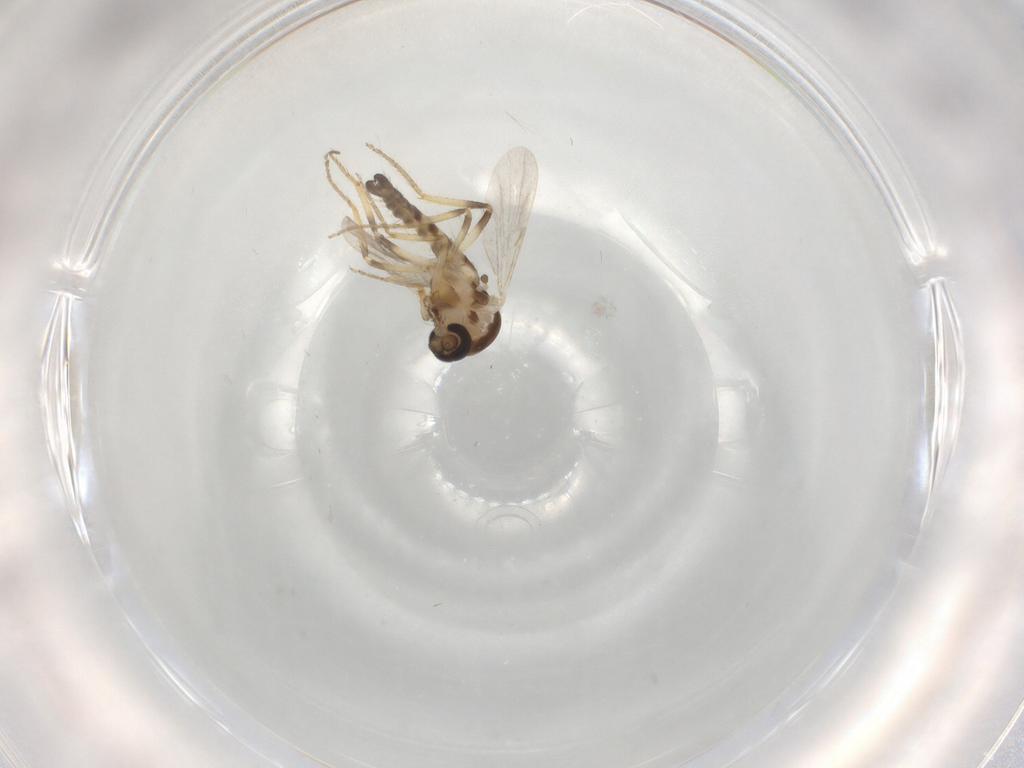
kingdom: Animalia
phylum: Arthropoda
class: Insecta
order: Diptera
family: Ceratopogonidae
